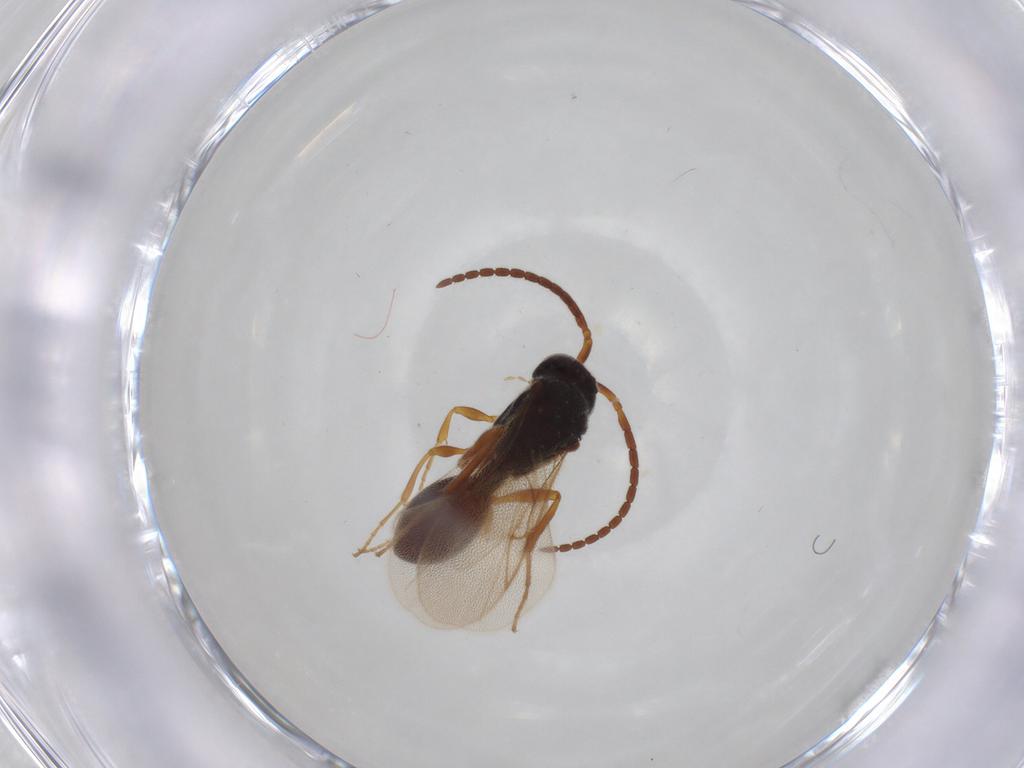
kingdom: Animalia
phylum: Arthropoda
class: Insecta
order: Hymenoptera
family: Diapriidae
